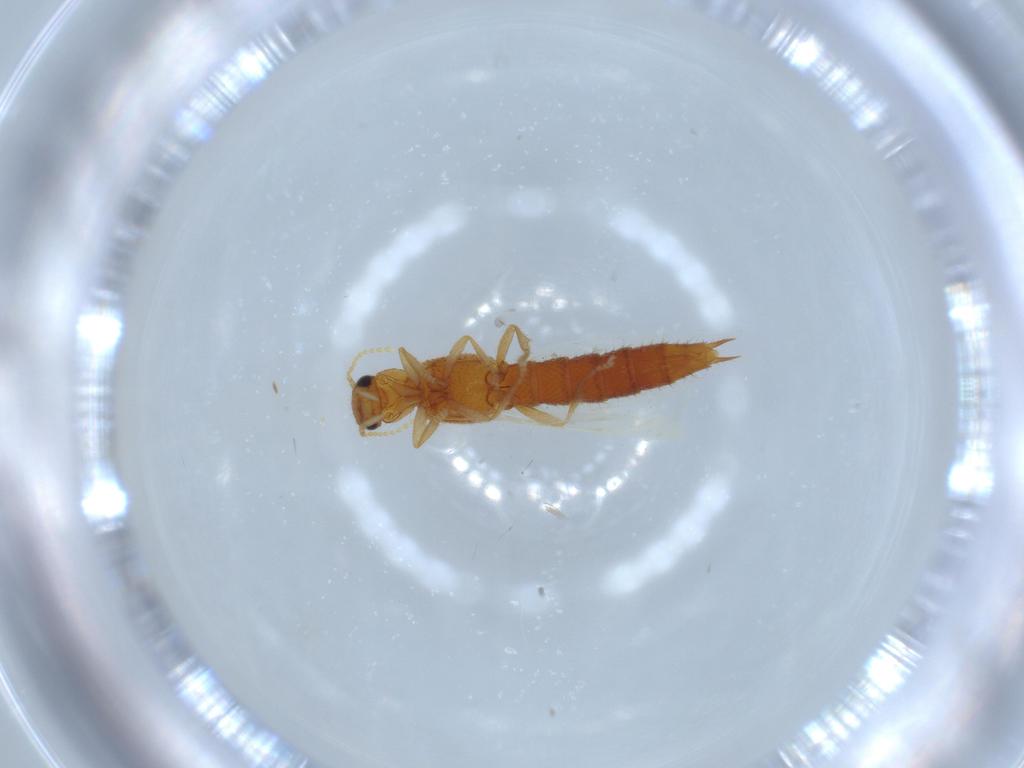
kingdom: Animalia
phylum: Arthropoda
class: Insecta
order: Coleoptera
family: Staphylinidae
